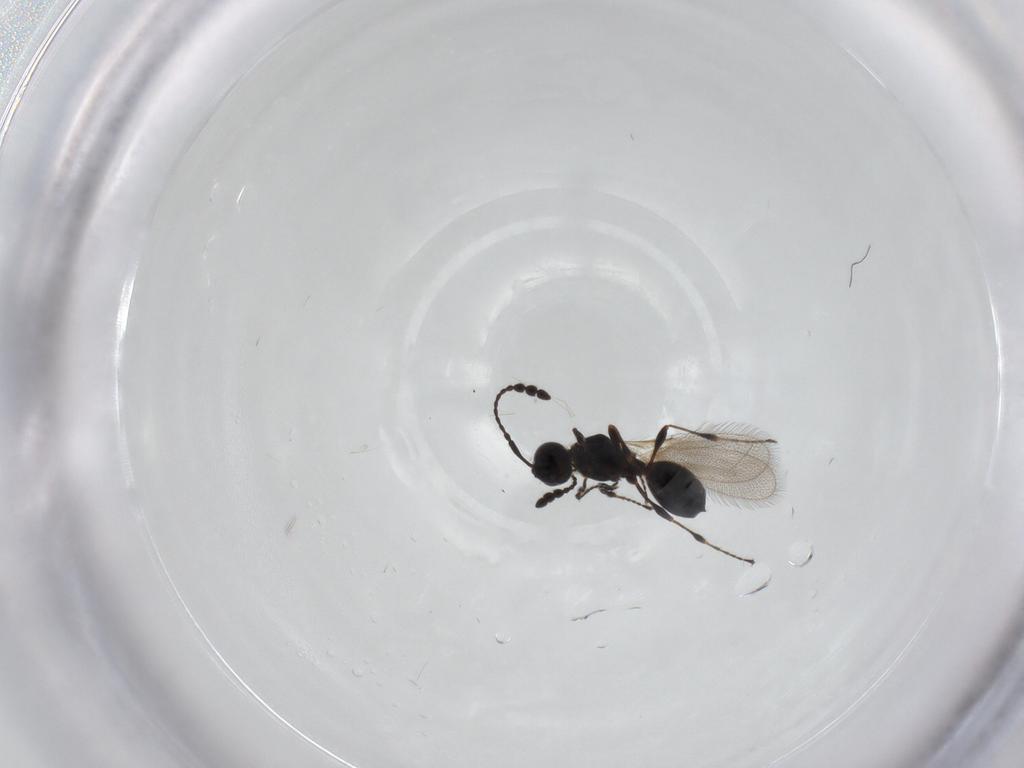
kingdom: Animalia
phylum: Arthropoda
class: Insecta
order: Hymenoptera
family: Diapriidae
